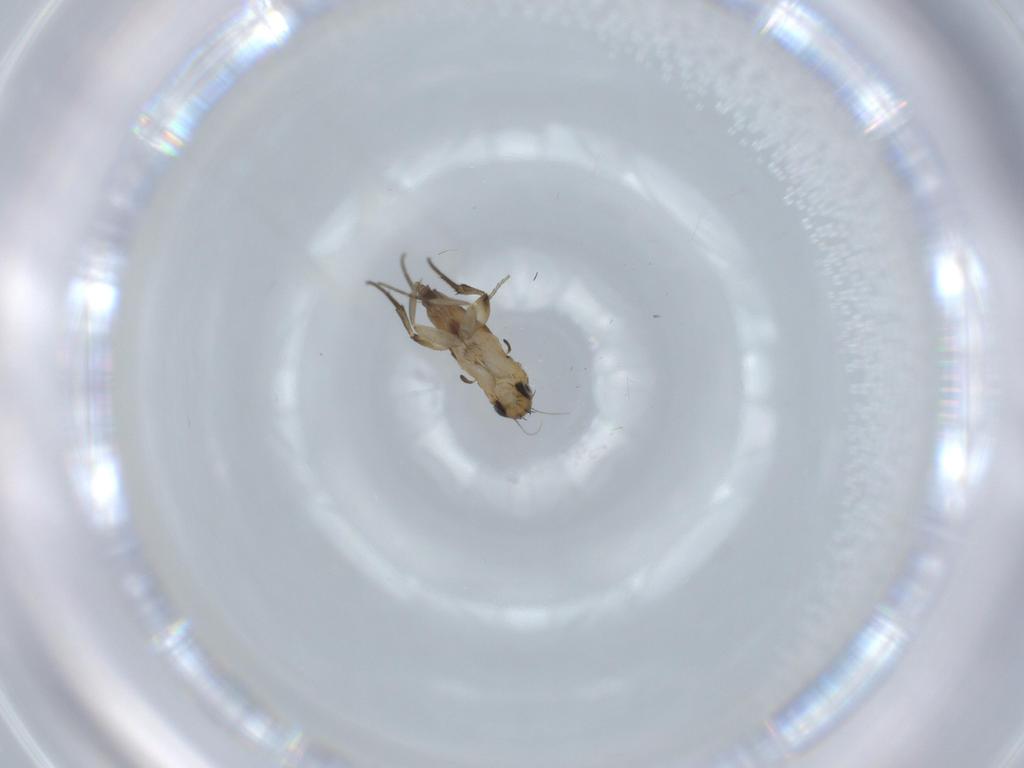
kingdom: Animalia
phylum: Arthropoda
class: Insecta
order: Diptera
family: Phoridae
